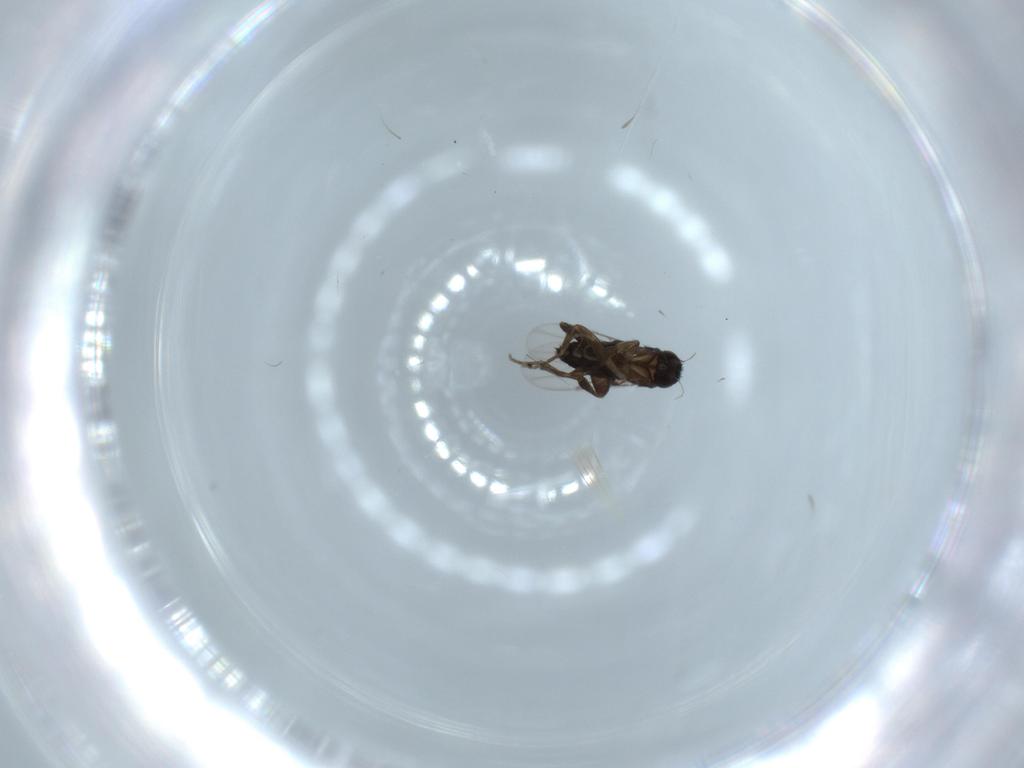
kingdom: Animalia
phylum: Arthropoda
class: Insecta
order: Diptera
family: Phoridae
